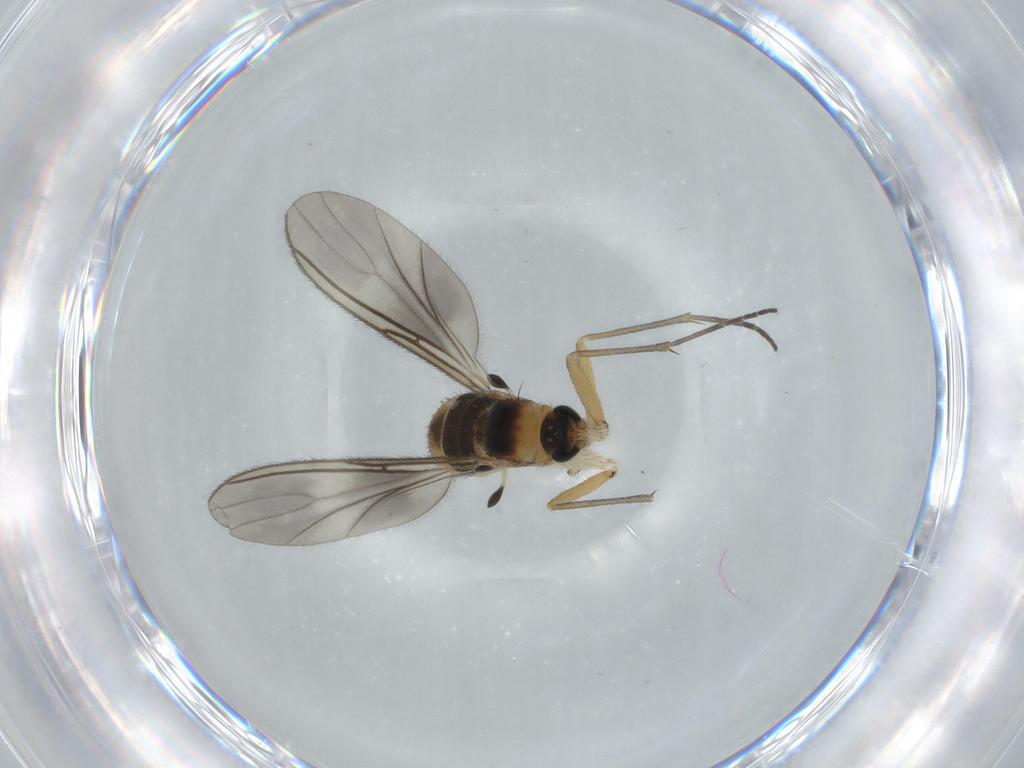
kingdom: Animalia
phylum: Arthropoda
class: Insecta
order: Diptera
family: Sciaridae
